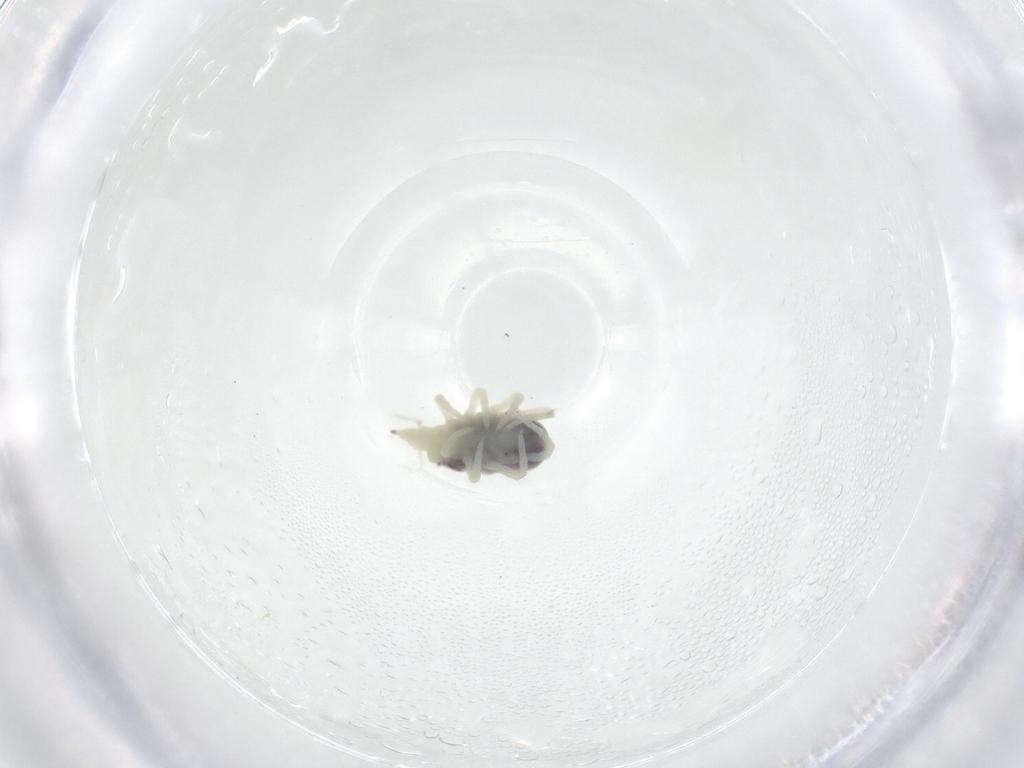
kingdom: Animalia
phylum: Arthropoda
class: Arachnida
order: Trombidiformes
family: Bdellidae
